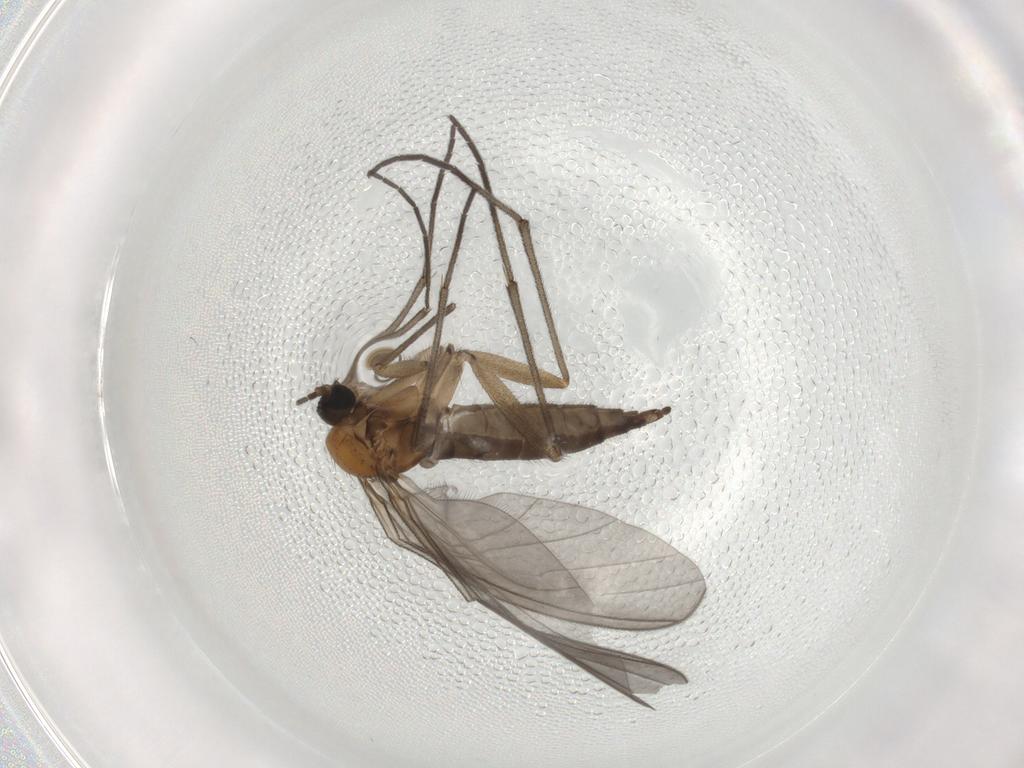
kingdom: Animalia
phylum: Arthropoda
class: Insecta
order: Diptera
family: Sciaridae
